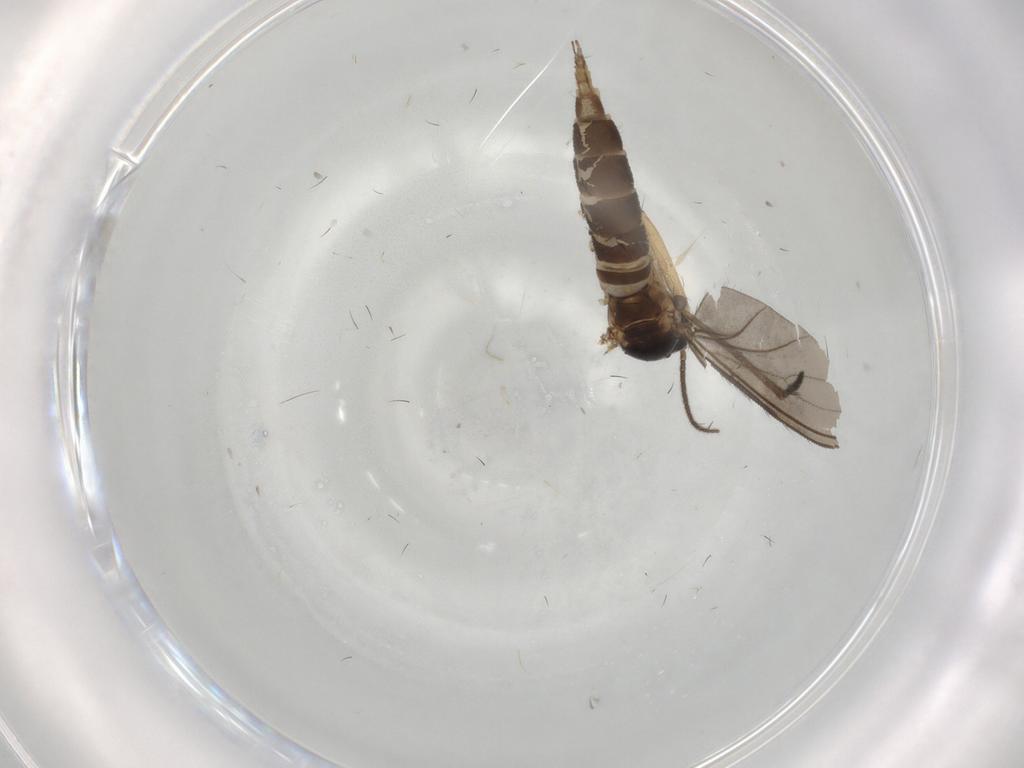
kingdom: Animalia
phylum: Arthropoda
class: Insecta
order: Diptera
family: Sciaridae
